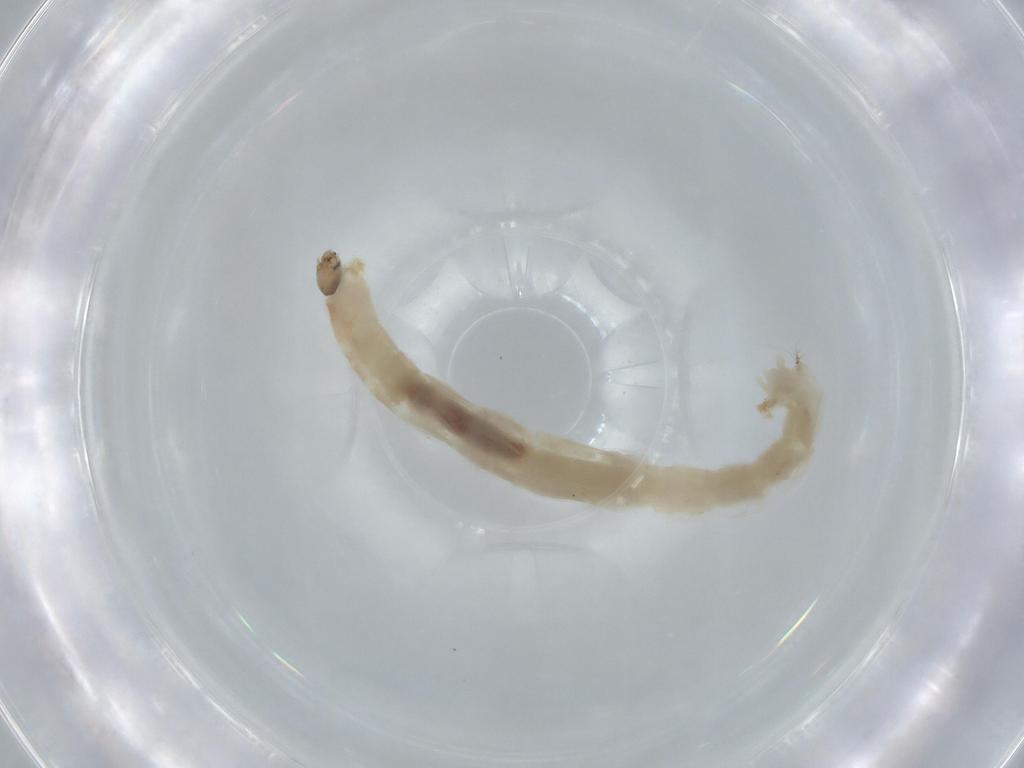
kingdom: Animalia
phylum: Arthropoda
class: Insecta
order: Diptera
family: Chironomidae
